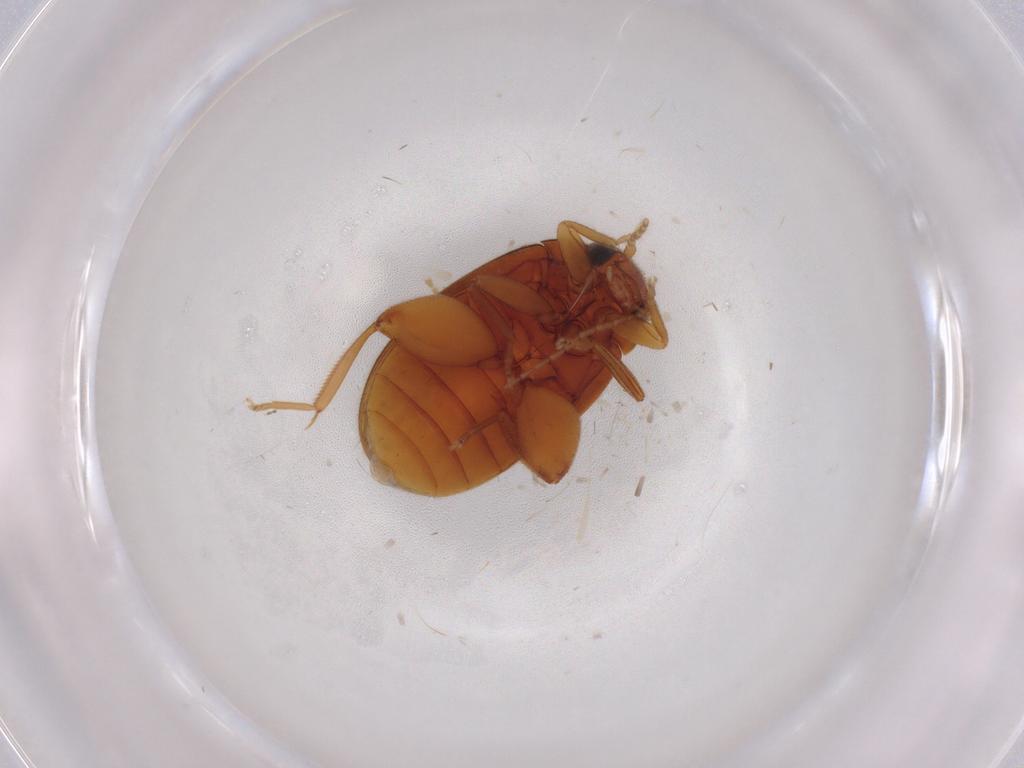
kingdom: Animalia
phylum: Arthropoda
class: Insecta
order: Coleoptera
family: Carabidae
